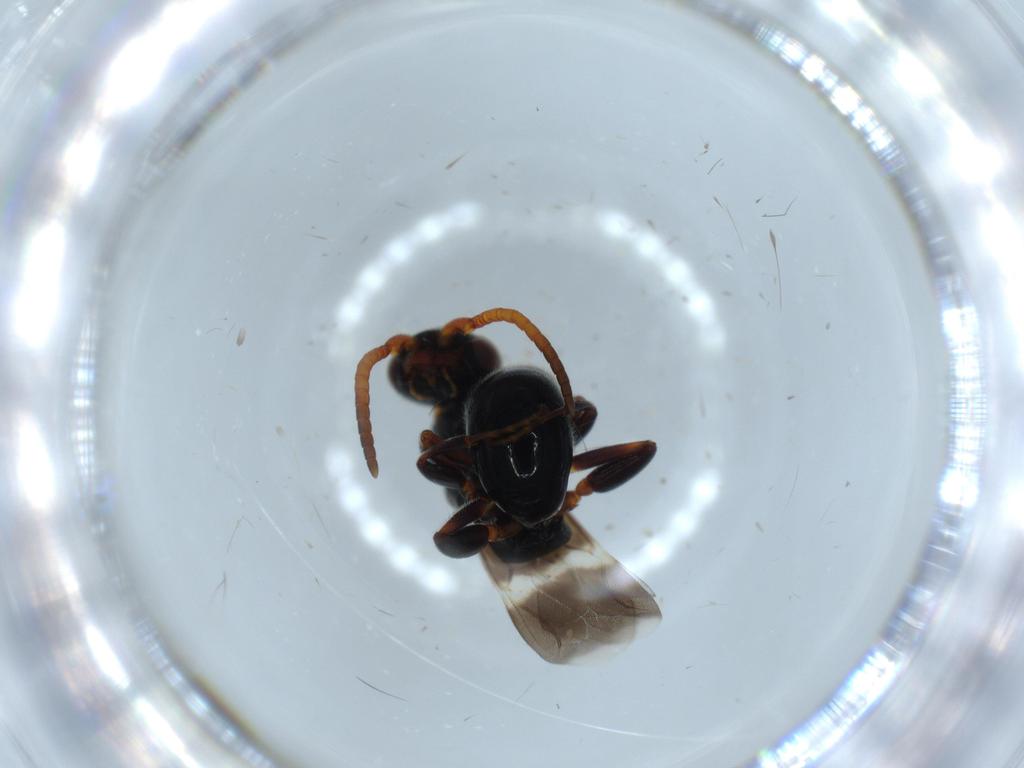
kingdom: Animalia
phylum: Arthropoda
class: Insecta
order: Hymenoptera
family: Bethylidae
